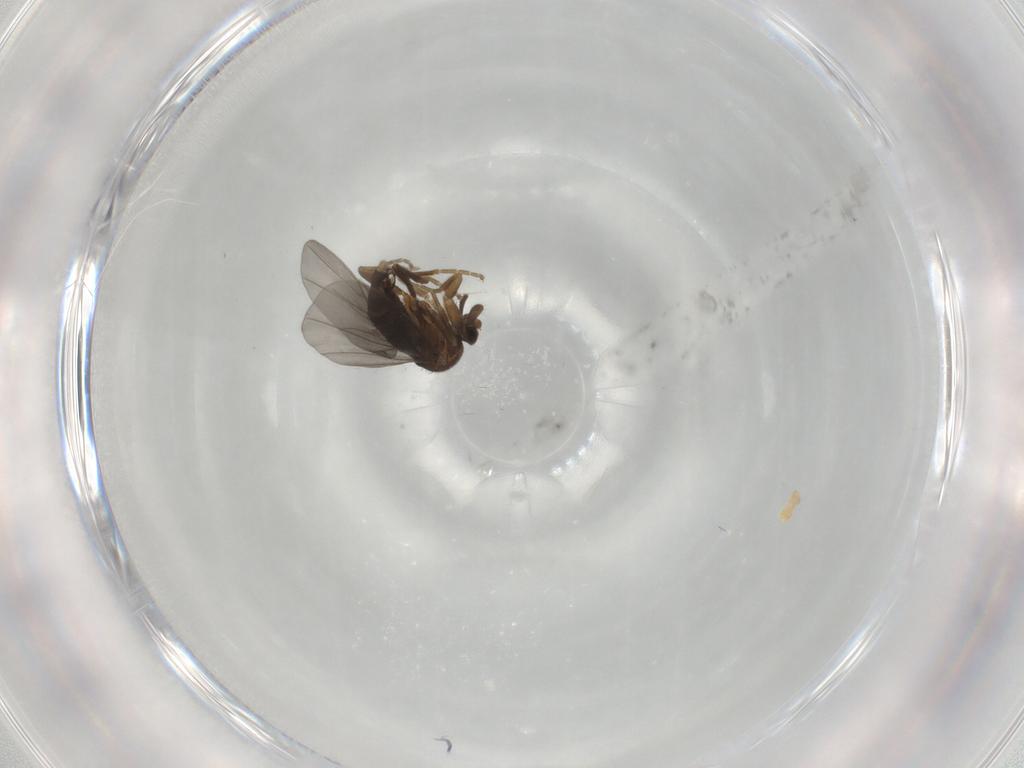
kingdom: Animalia
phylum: Arthropoda
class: Insecta
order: Diptera
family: Phoridae
